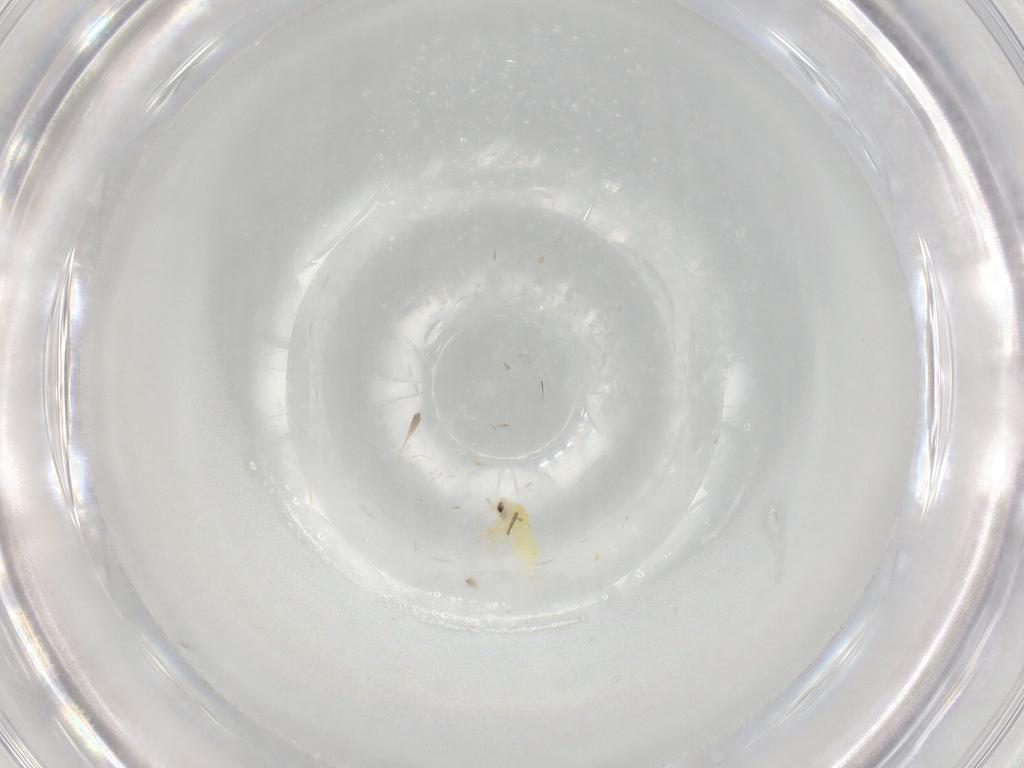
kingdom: Animalia
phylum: Arthropoda
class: Insecta
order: Hemiptera
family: Aleyrodidae
